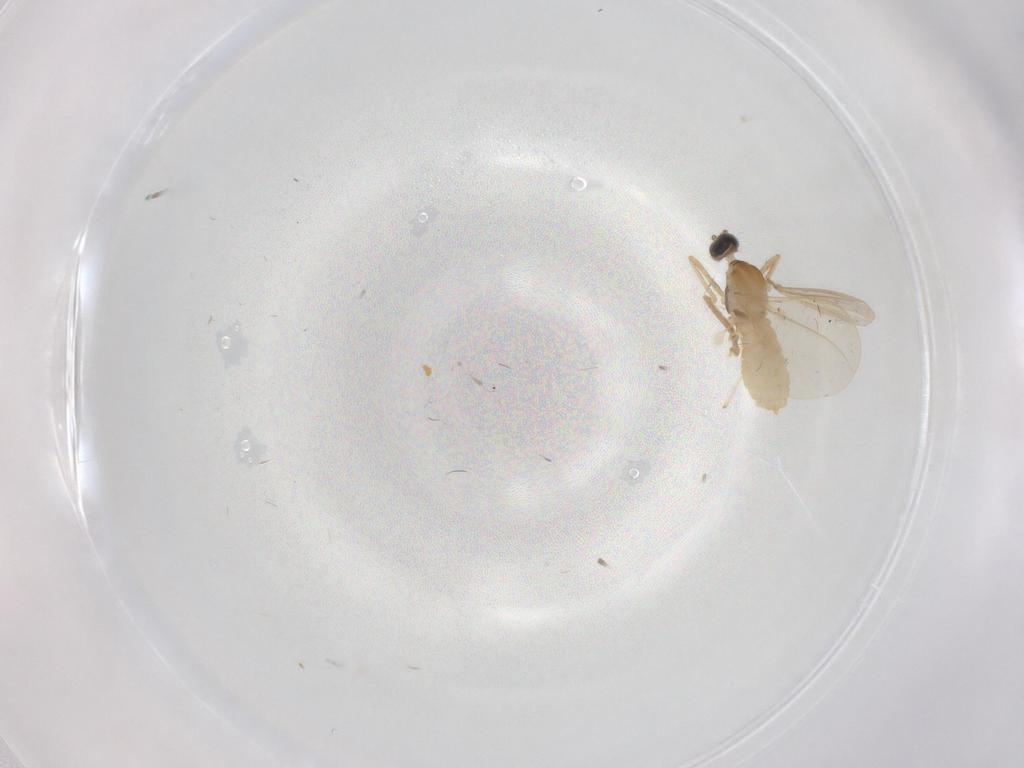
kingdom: Animalia
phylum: Arthropoda
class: Insecta
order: Diptera
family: Cecidomyiidae
